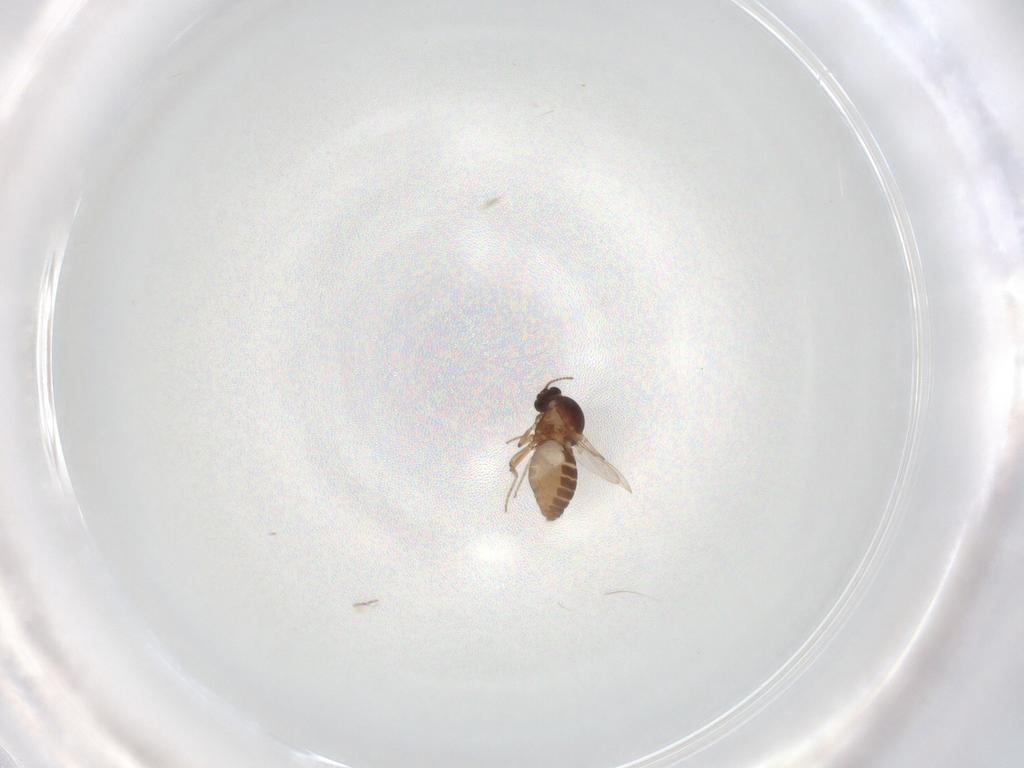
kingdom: Animalia
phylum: Arthropoda
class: Insecta
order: Diptera
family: Ceratopogonidae
